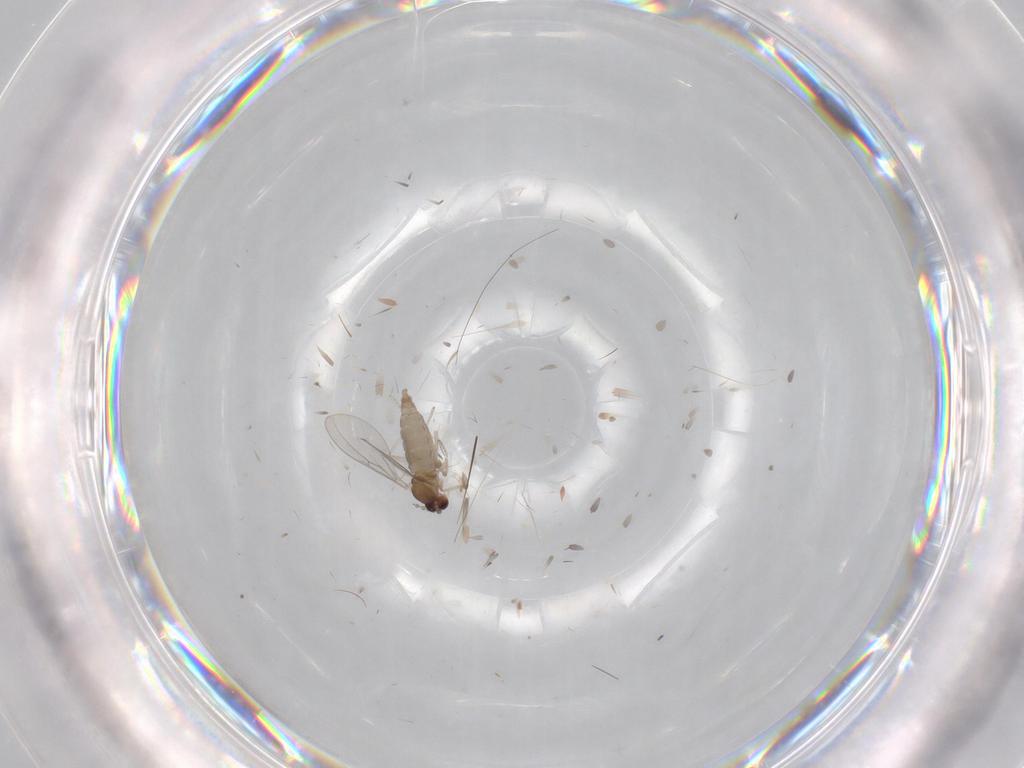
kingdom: Animalia
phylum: Arthropoda
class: Insecta
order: Diptera
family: Cecidomyiidae
